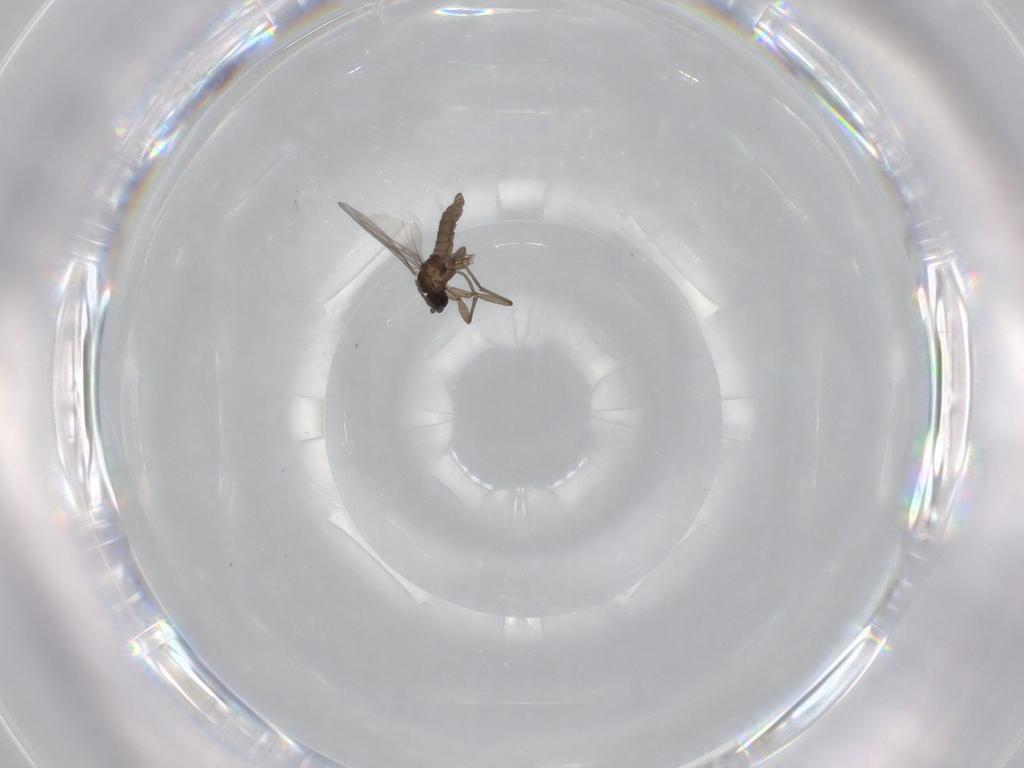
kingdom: Animalia
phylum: Arthropoda
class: Insecta
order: Diptera
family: Sciaridae
